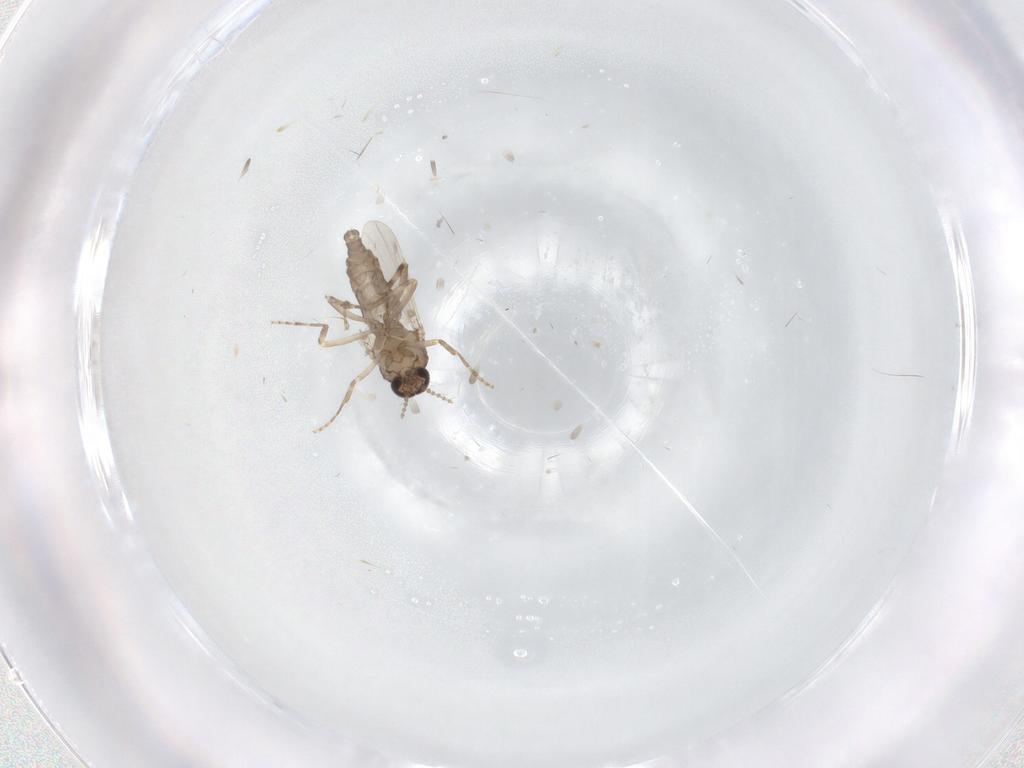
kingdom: Animalia
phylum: Arthropoda
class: Insecta
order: Diptera
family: Ceratopogonidae
